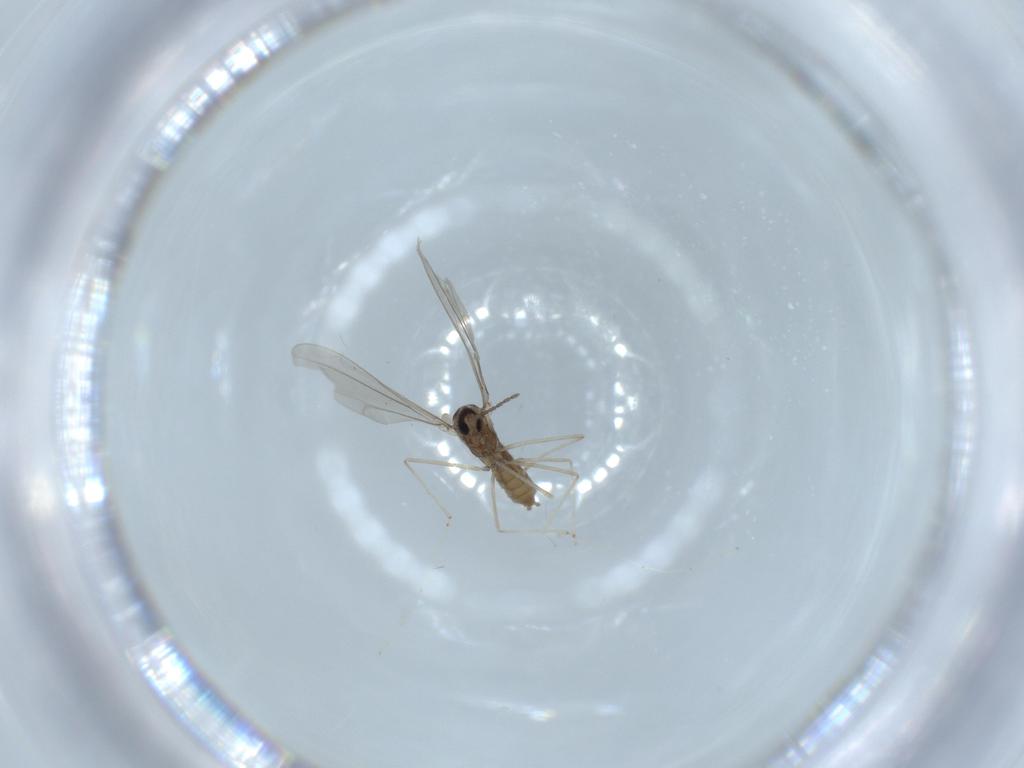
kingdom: Animalia
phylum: Arthropoda
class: Insecta
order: Diptera
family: Cecidomyiidae
